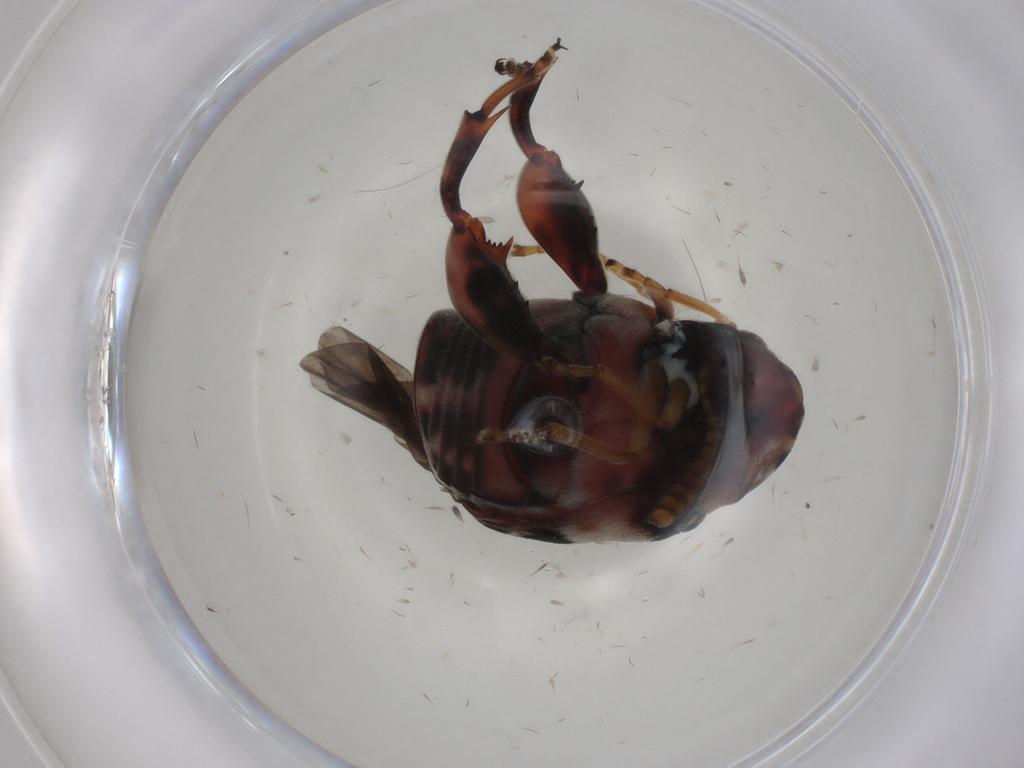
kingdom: Animalia
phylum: Arthropoda
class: Insecta
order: Coleoptera
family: Chrysomelidae
